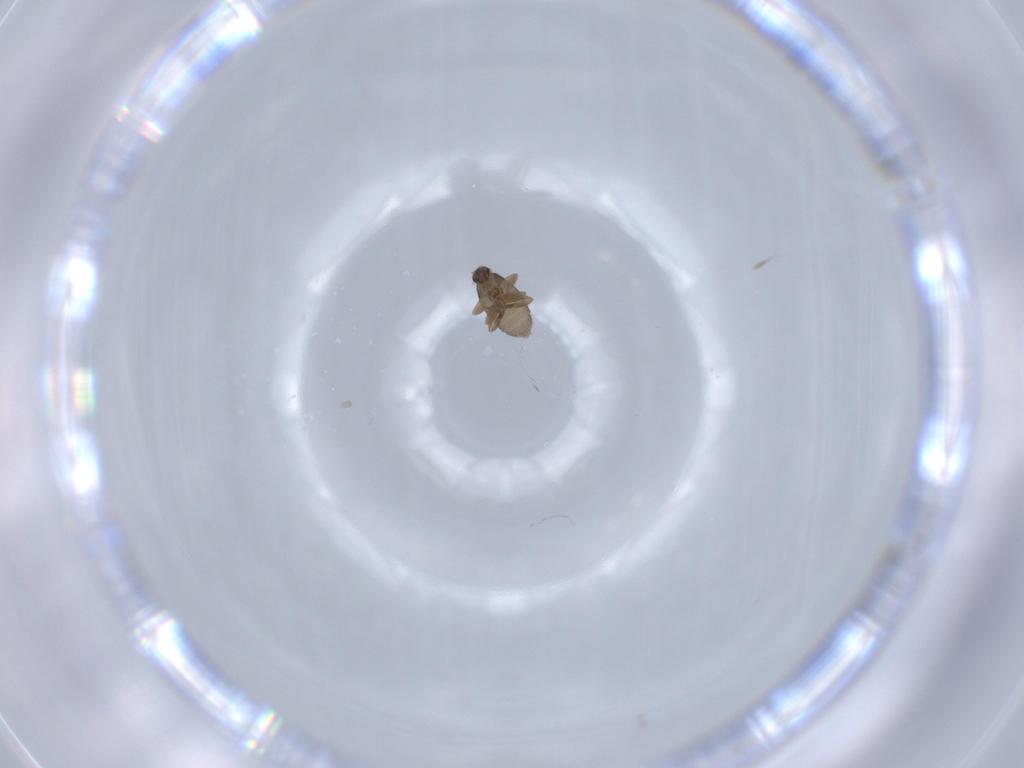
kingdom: Animalia
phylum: Arthropoda
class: Insecta
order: Diptera
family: Phoridae
